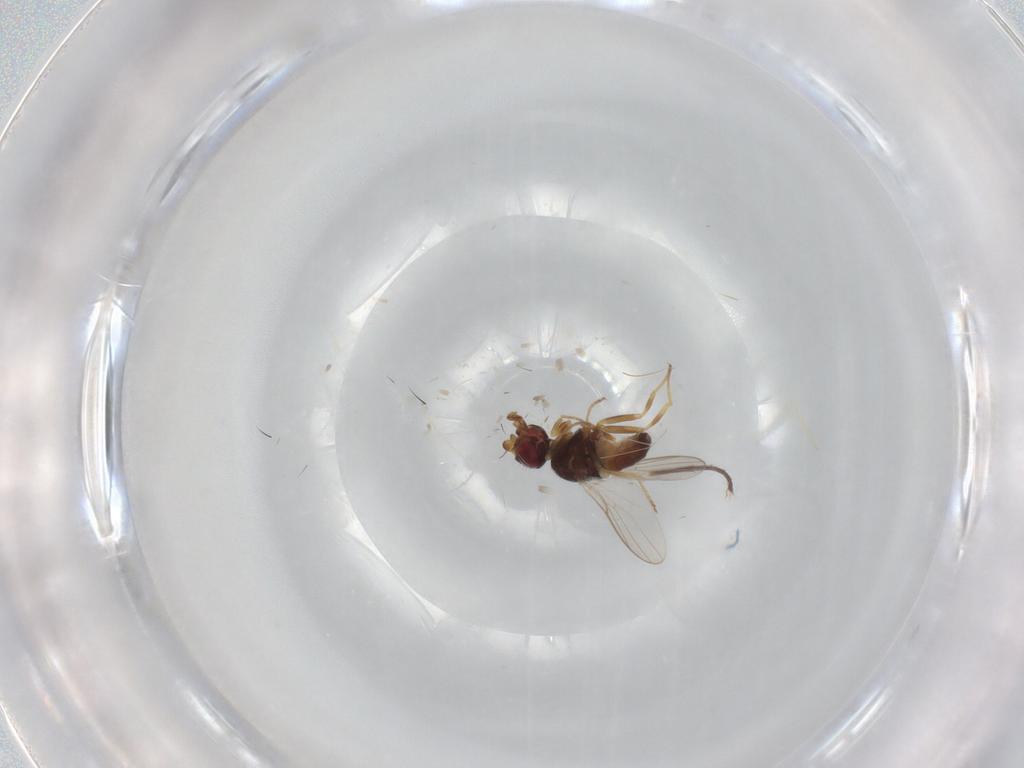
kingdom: Animalia
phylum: Arthropoda
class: Insecta
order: Diptera
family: Chloropidae
